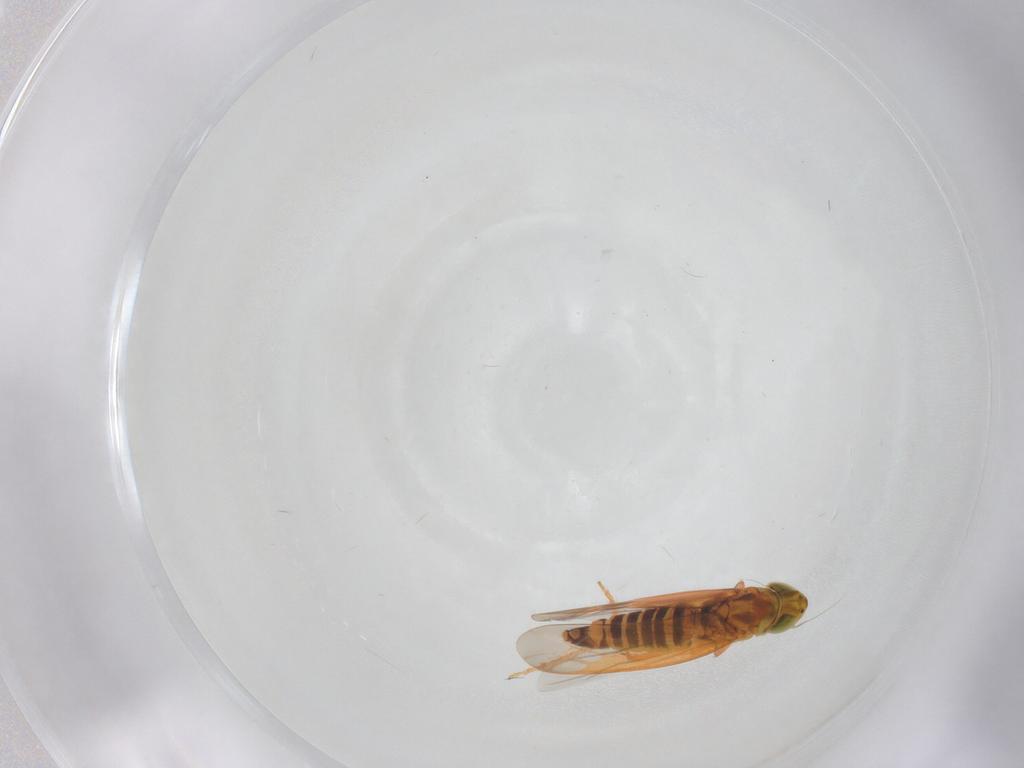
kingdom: Animalia
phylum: Arthropoda
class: Insecta
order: Hemiptera
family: Cicadellidae
